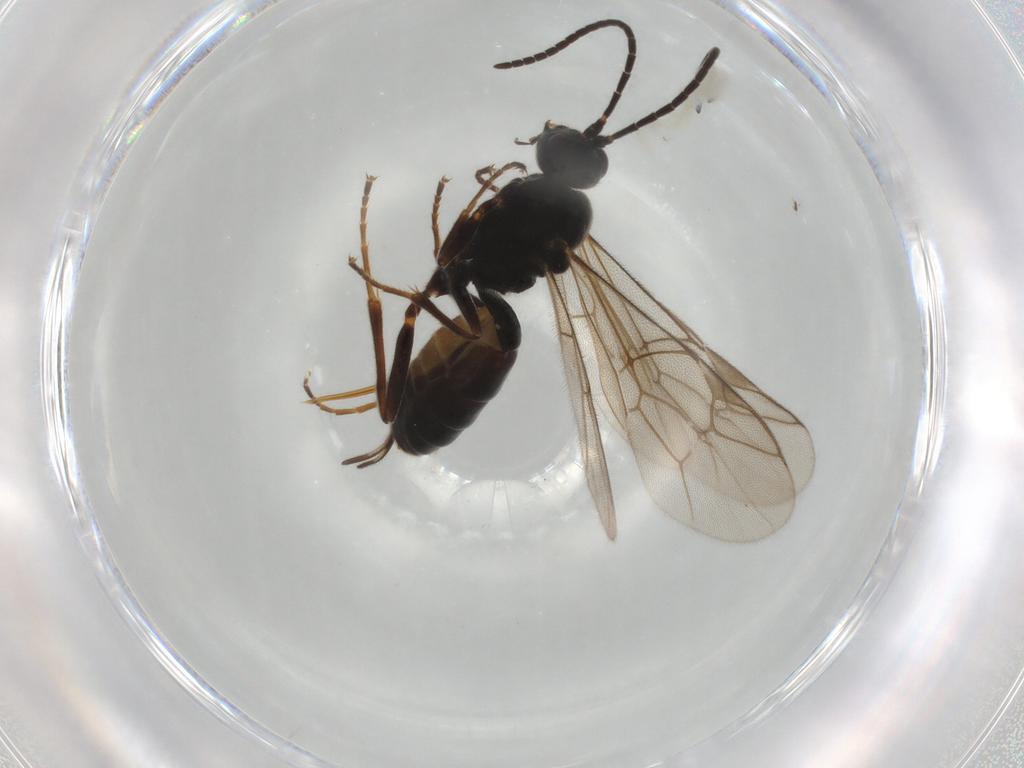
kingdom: Animalia
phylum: Arthropoda
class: Insecta
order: Hymenoptera
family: Ichneumonidae
